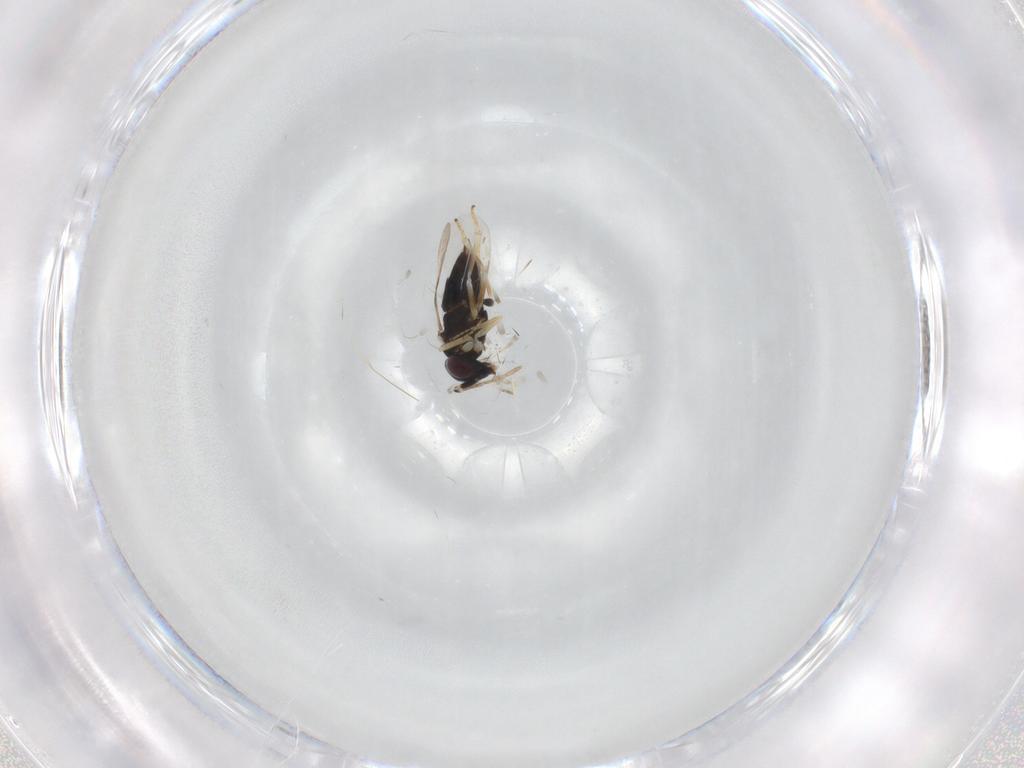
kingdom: Animalia
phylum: Arthropoda
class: Insecta
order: Hymenoptera
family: Encyrtidae
